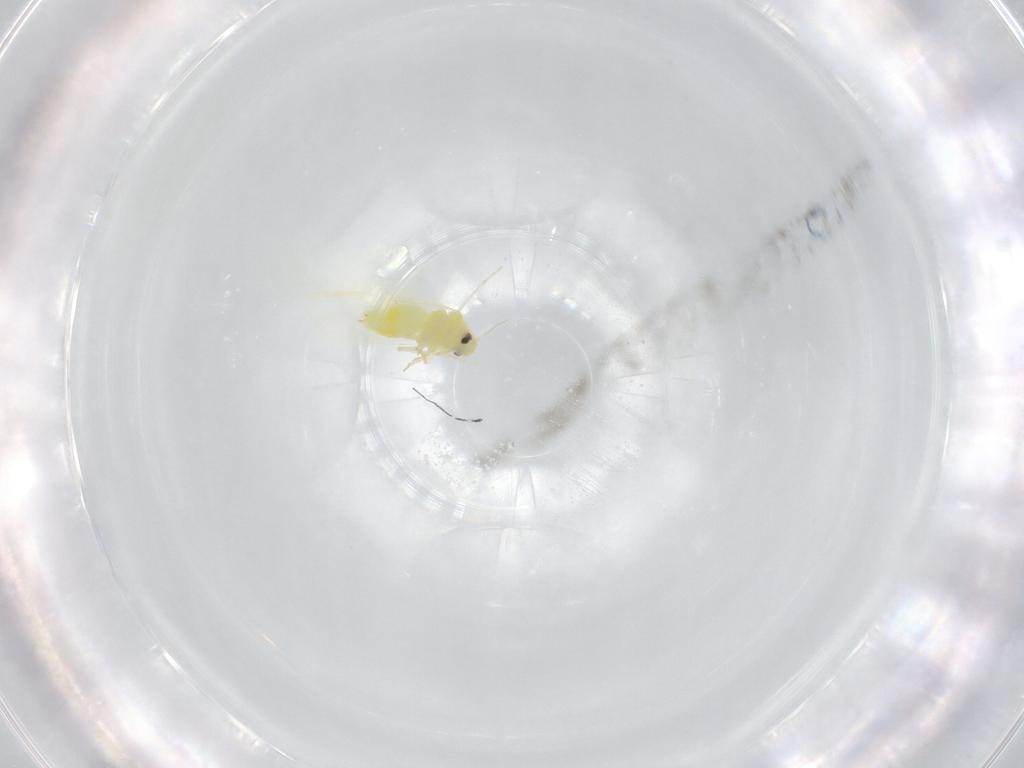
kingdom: Animalia
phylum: Arthropoda
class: Insecta
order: Hemiptera
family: Aleyrodidae
